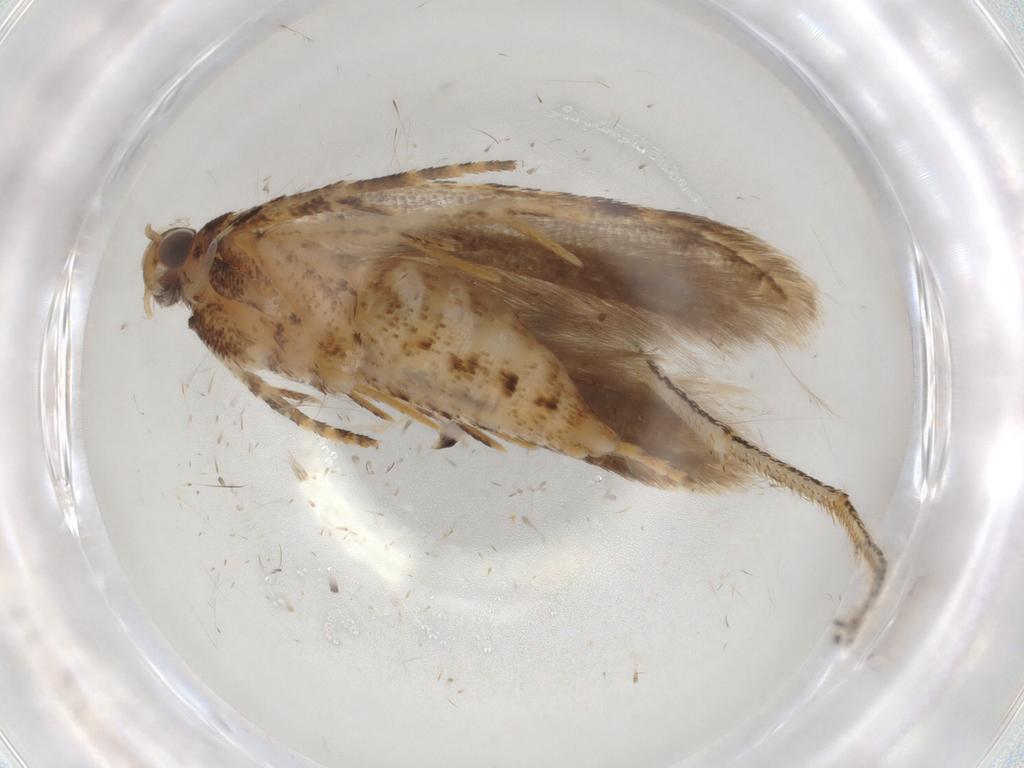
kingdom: Animalia
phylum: Arthropoda
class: Insecta
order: Lepidoptera
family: Gelechiidae
